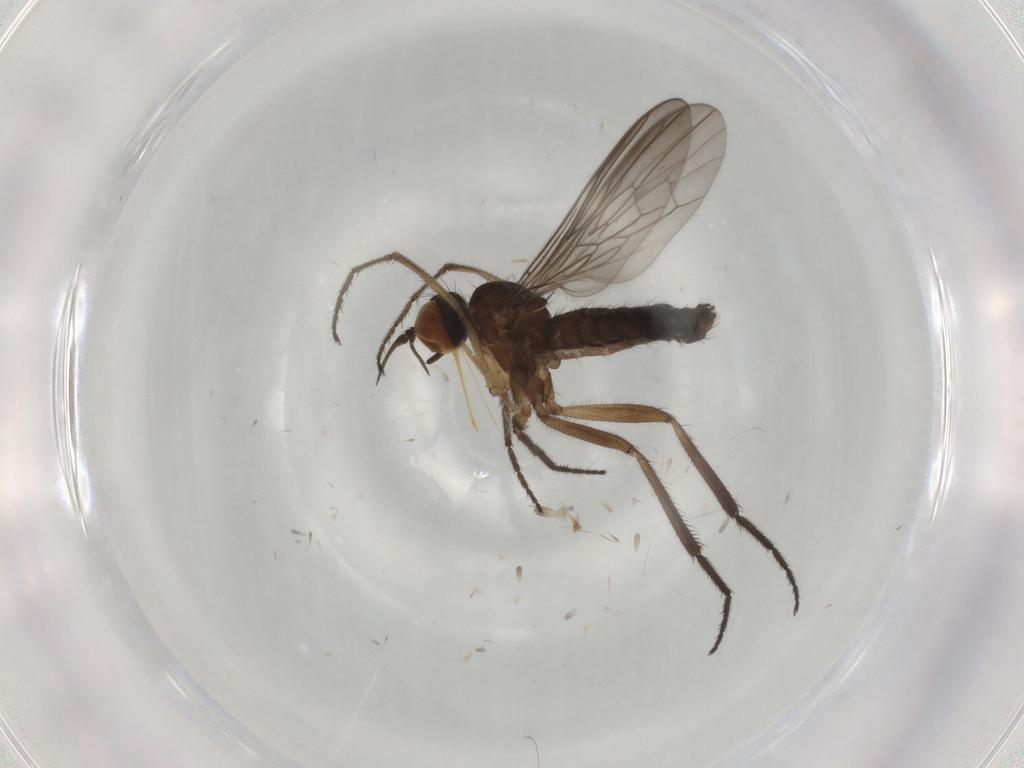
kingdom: Animalia
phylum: Arthropoda
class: Insecta
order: Diptera
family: Empididae
